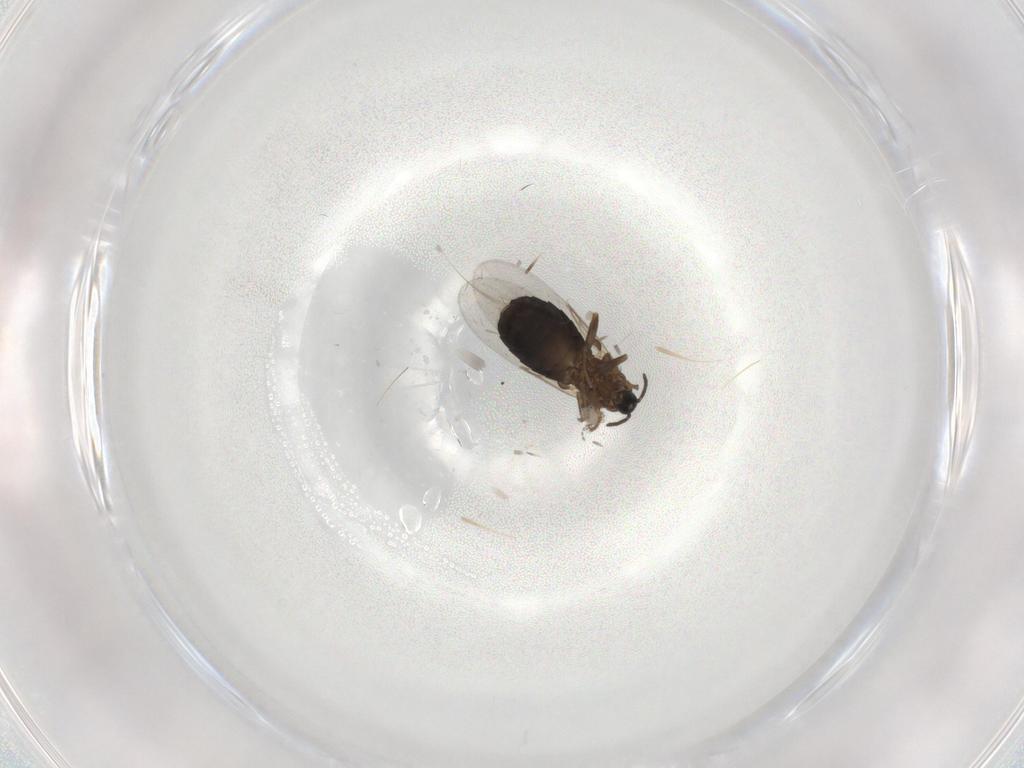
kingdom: Animalia
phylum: Arthropoda
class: Insecta
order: Diptera
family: Scatopsidae
